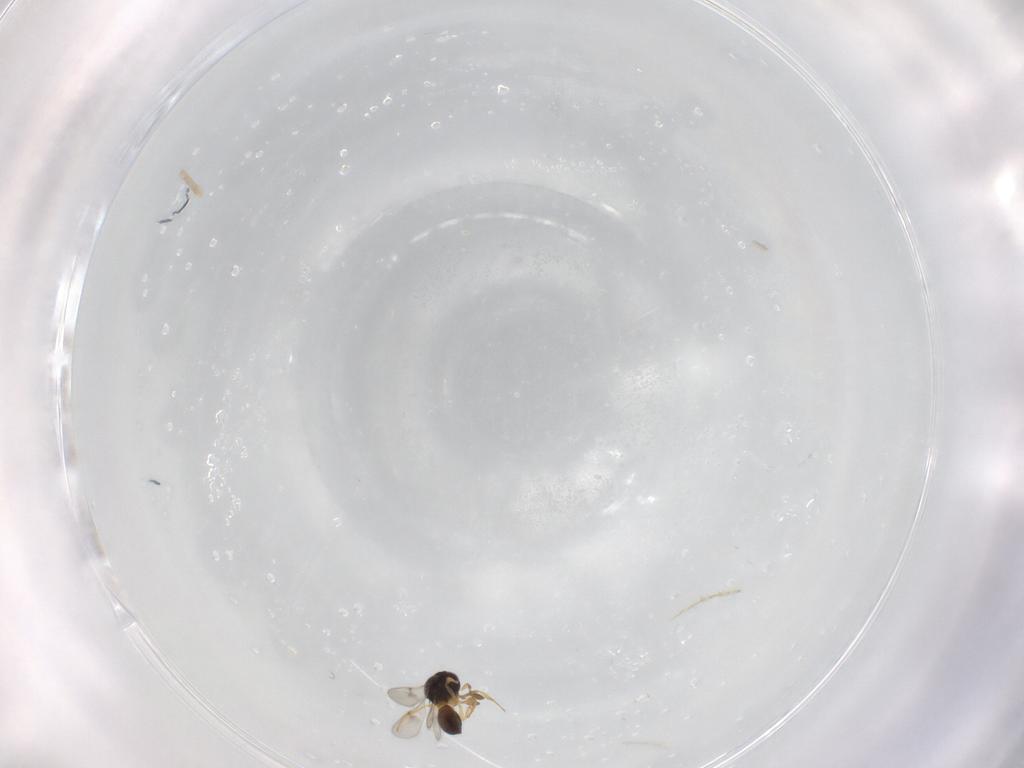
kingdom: Animalia
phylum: Arthropoda
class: Insecta
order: Hymenoptera
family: Scelionidae
